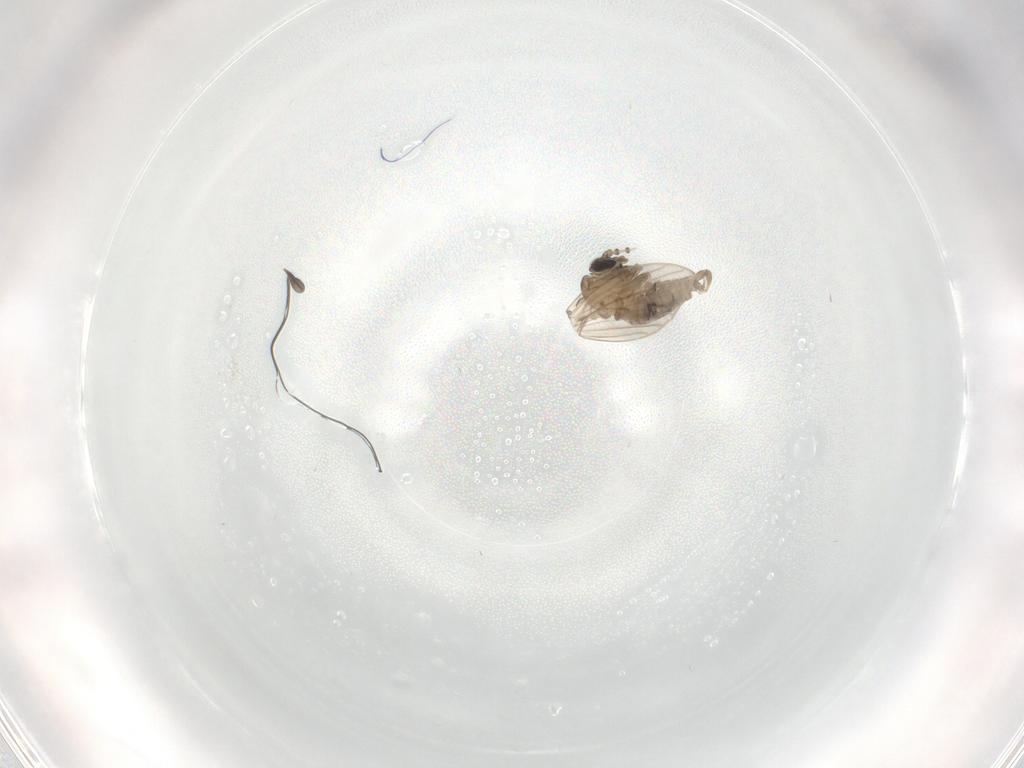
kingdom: Animalia
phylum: Arthropoda
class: Insecta
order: Diptera
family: Psychodidae
